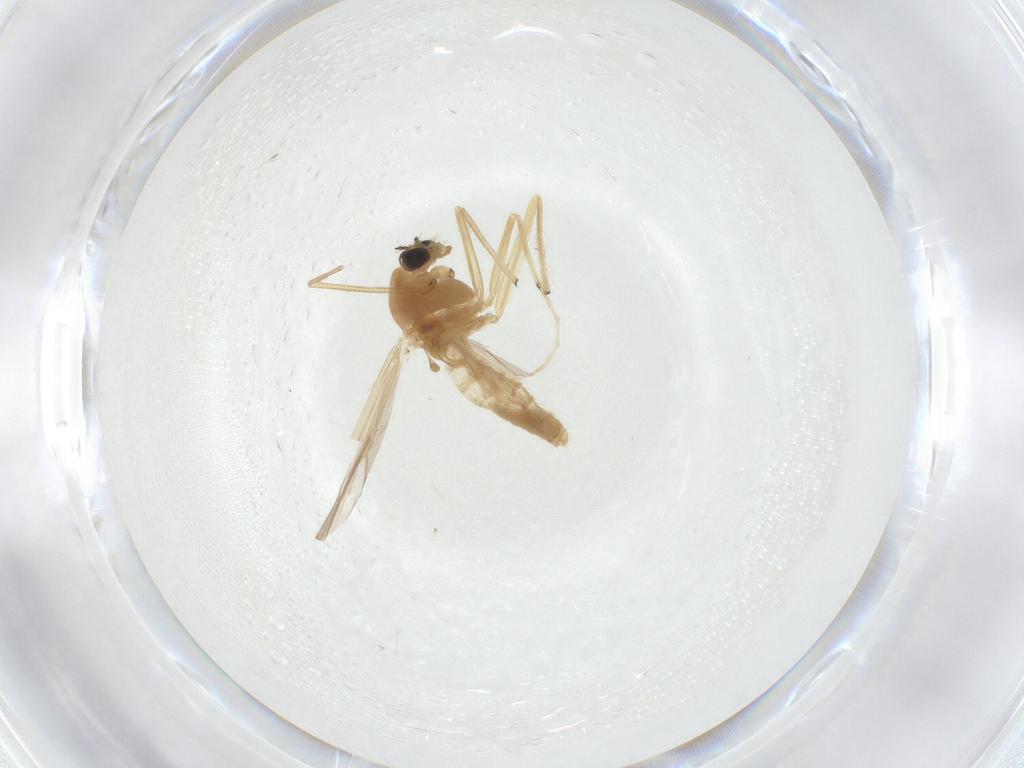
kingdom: Animalia
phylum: Arthropoda
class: Insecta
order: Diptera
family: Chironomidae
